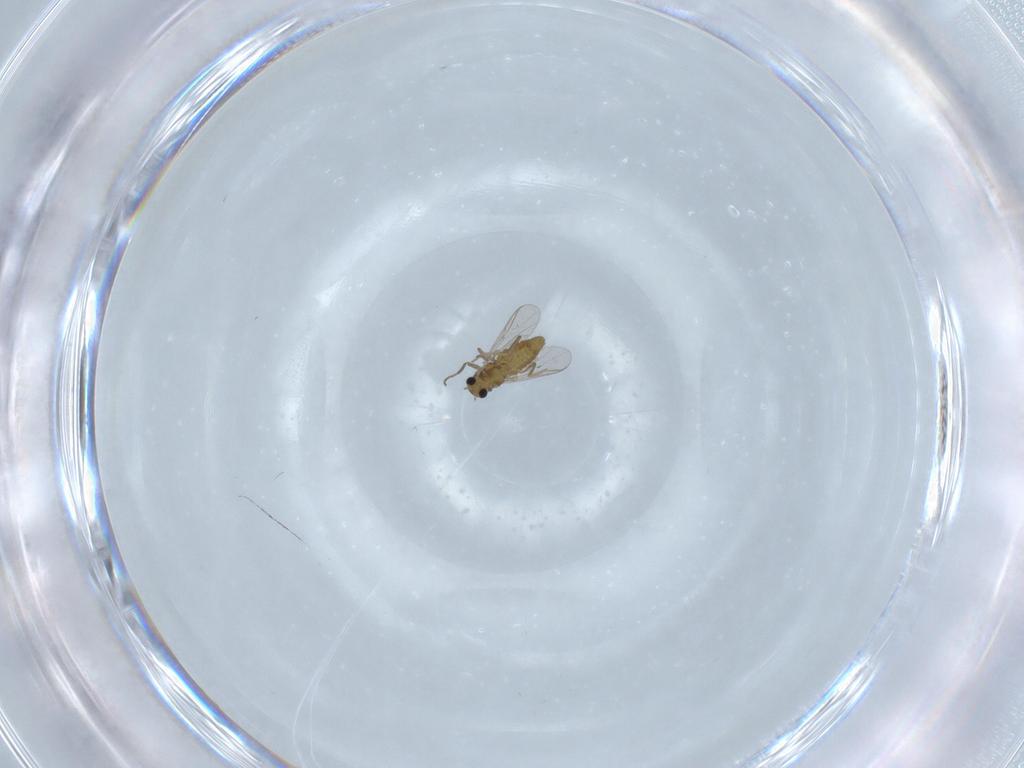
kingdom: Animalia
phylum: Arthropoda
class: Insecta
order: Diptera
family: Chironomidae
